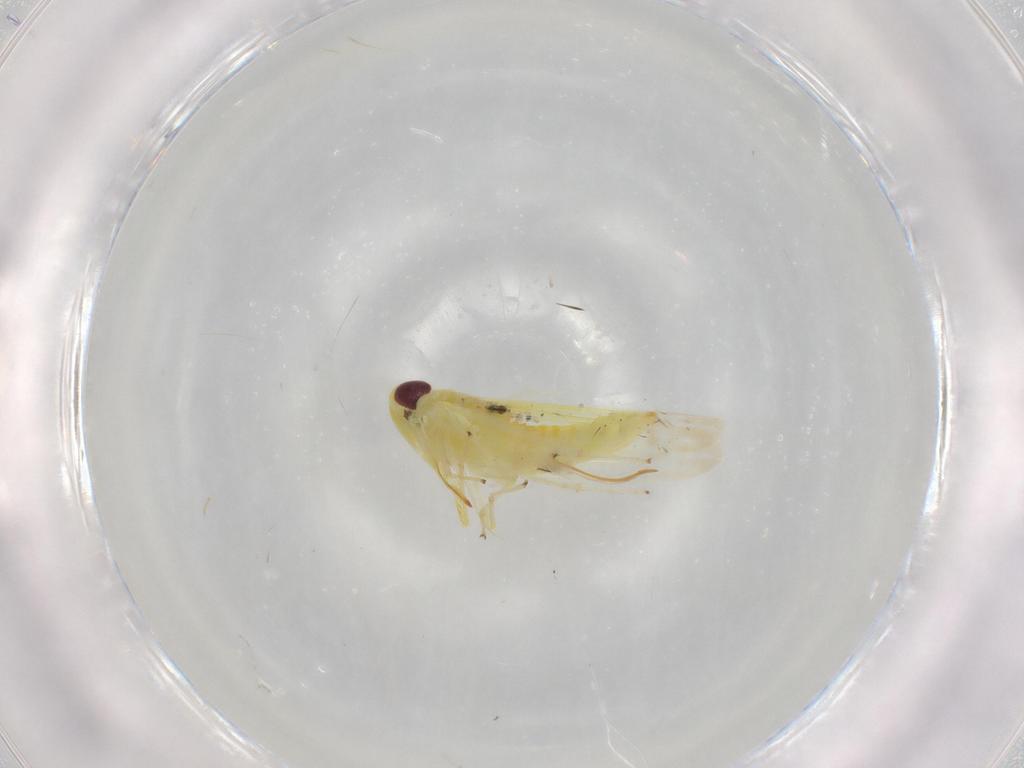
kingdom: Animalia
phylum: Arthropoda
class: Insecta
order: Hemiptera
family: Cicadellidae
